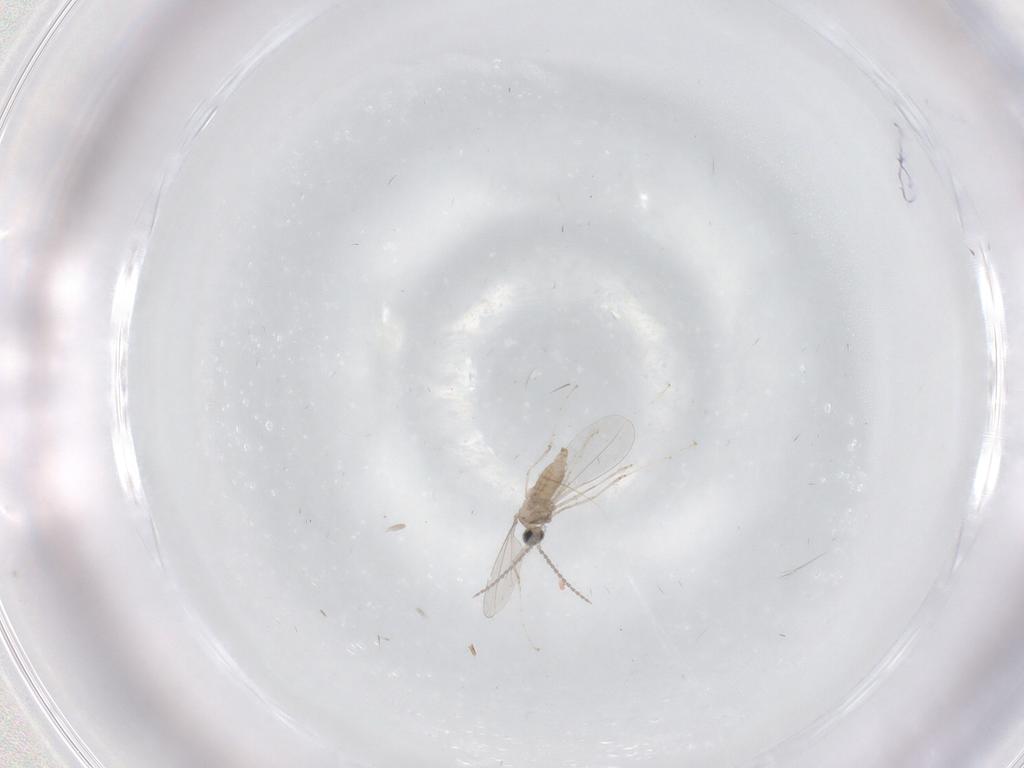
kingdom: Animalia
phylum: Arthropoda
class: Insecta
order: Diptera
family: Cecidomyiidae
